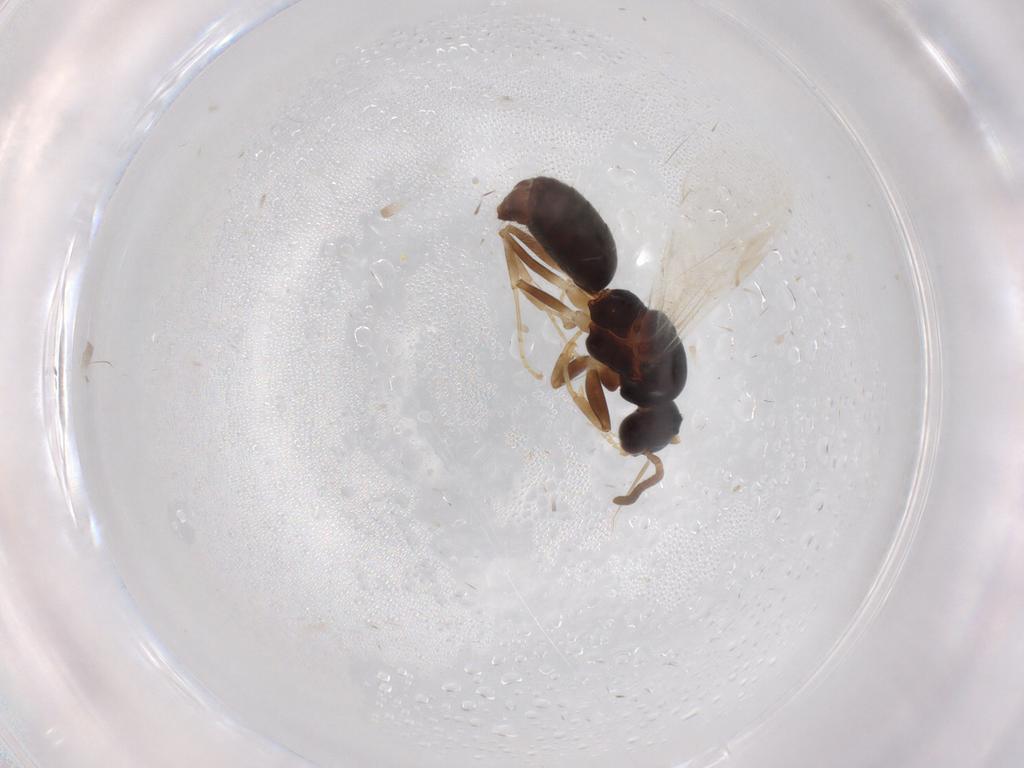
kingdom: Animalia
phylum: Arthropoda
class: Insecta
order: Hymenoptera
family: Formicidae
